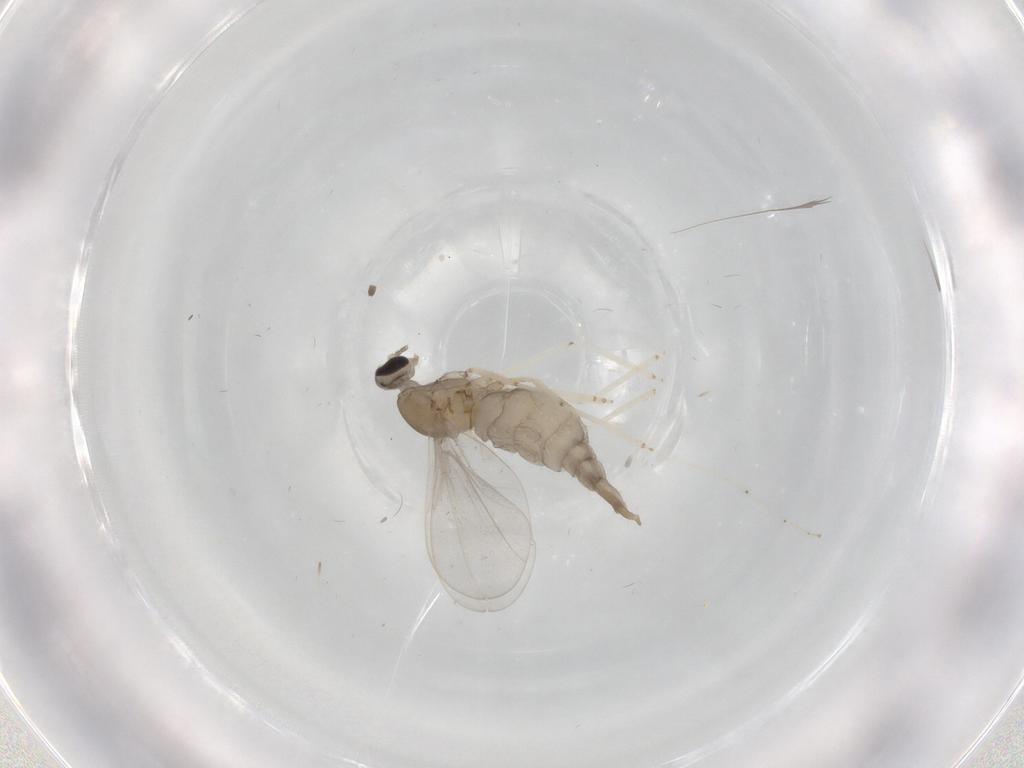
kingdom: Animalia
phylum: Arthropoda
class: Insecta
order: Diptera
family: Cecidomyiidae
